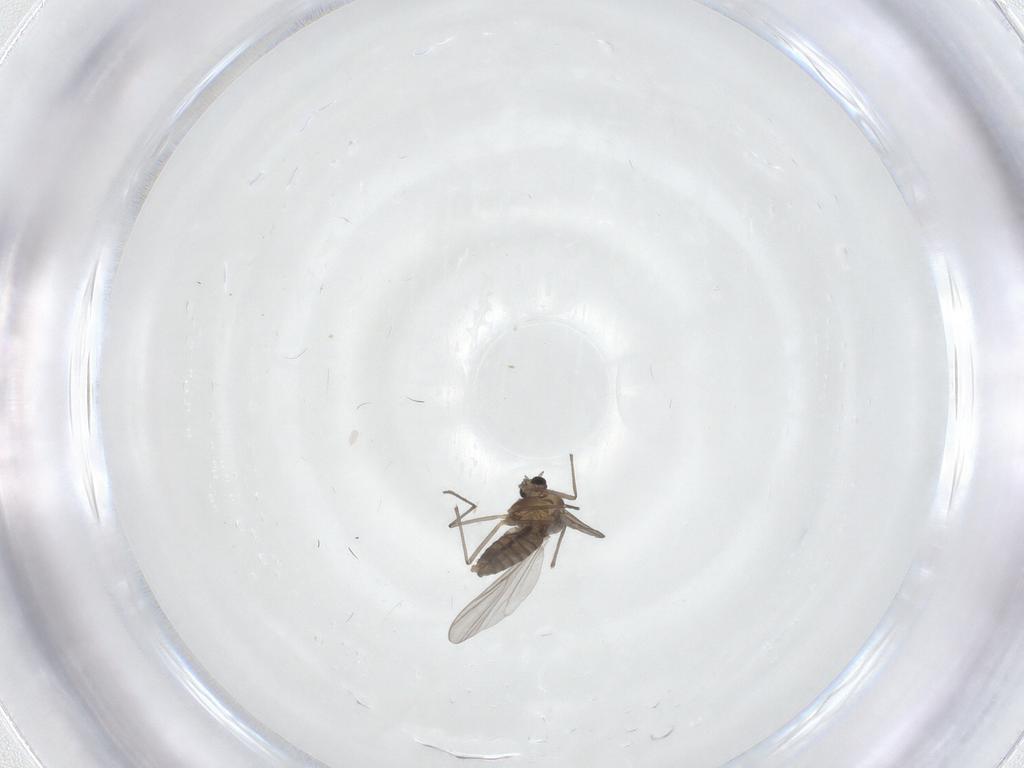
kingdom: Animalia
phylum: Arthropoda
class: Insecta
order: Diptera
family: Chironomidae
